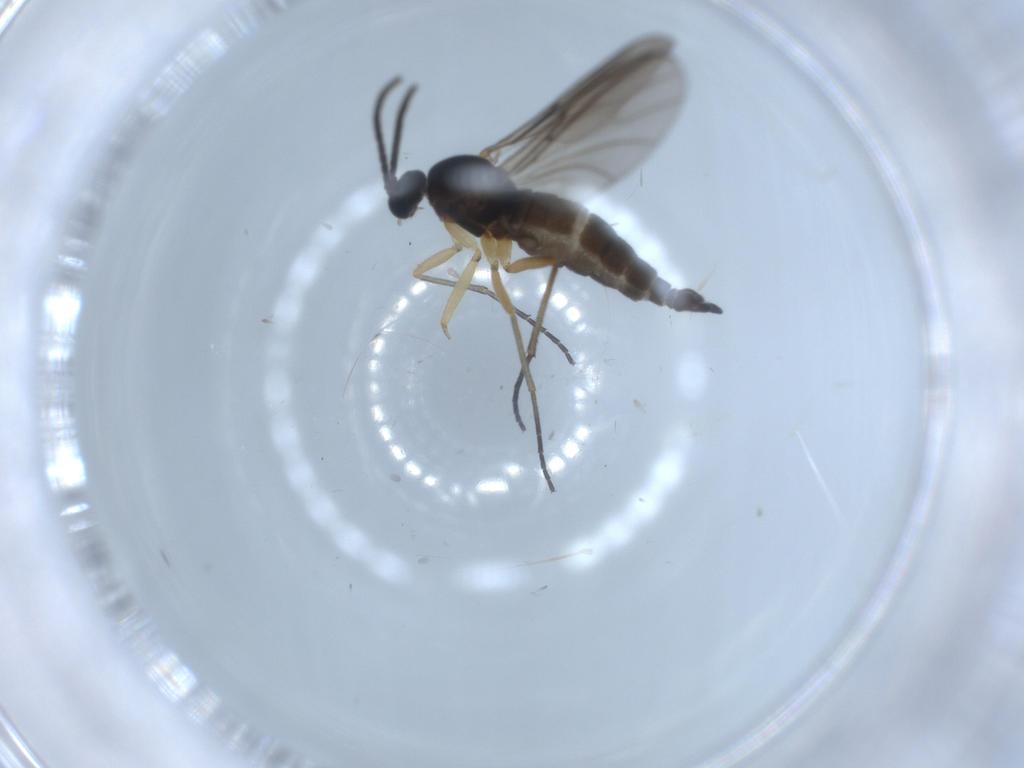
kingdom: Animalia
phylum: Arthropoda
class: Insecta
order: Diptera
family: Sciaridae
